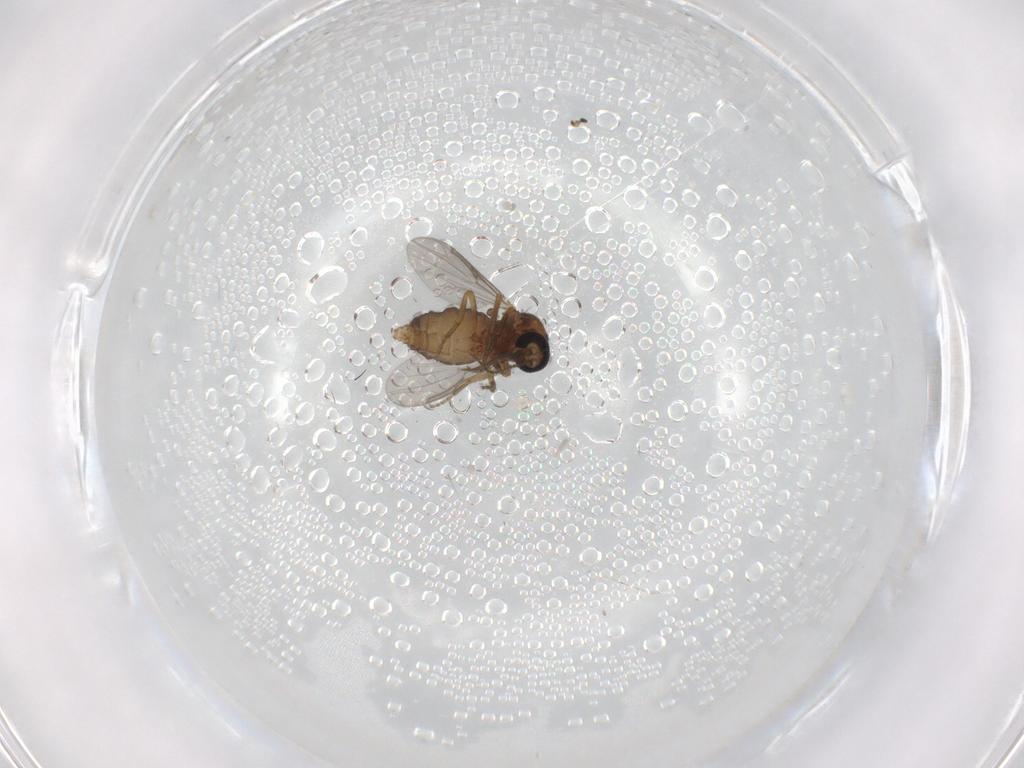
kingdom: Animalia
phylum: Arthropoda
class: Insecta
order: Diptera
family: Ceratopogonidae
